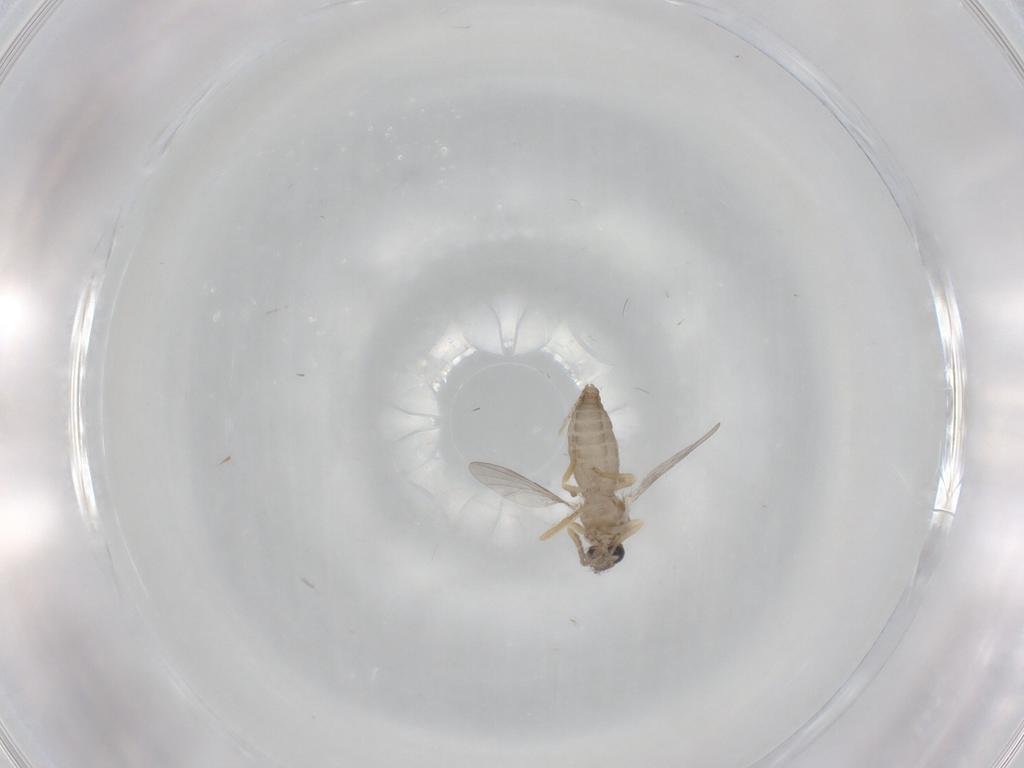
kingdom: Animalia
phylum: Arthropoda
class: Insecta
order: Diptera
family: Ceratopogonidae
